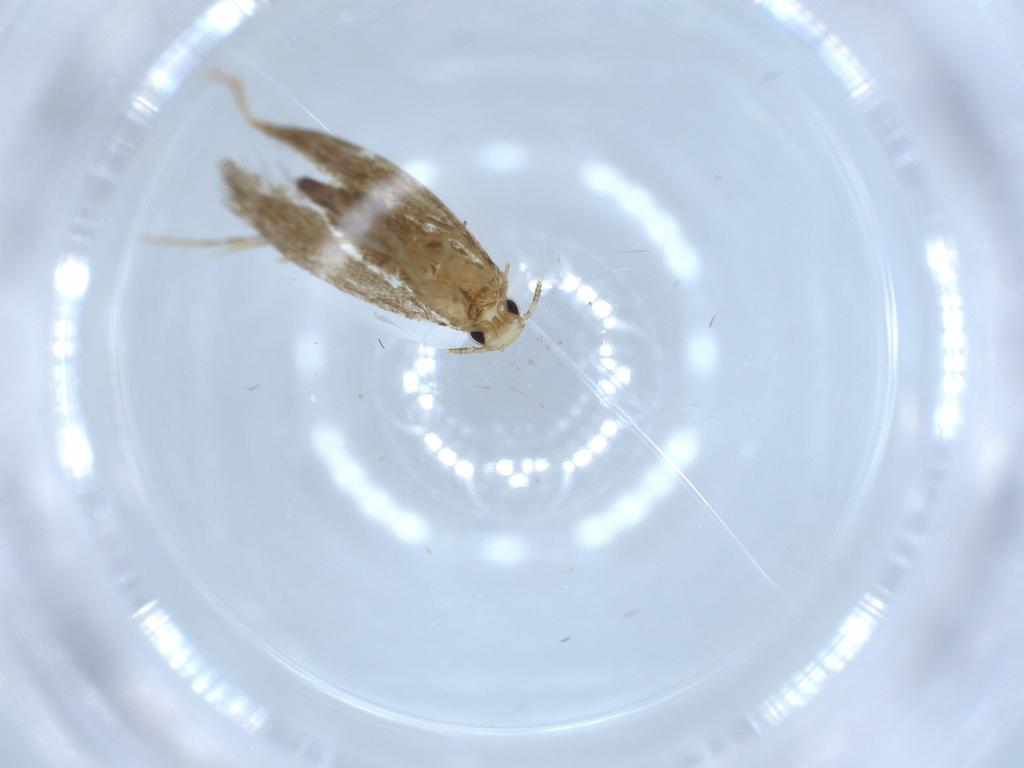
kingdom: Animalia
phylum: Arthropoda
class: Insecta
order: Lepidoptera
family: Tineidae
